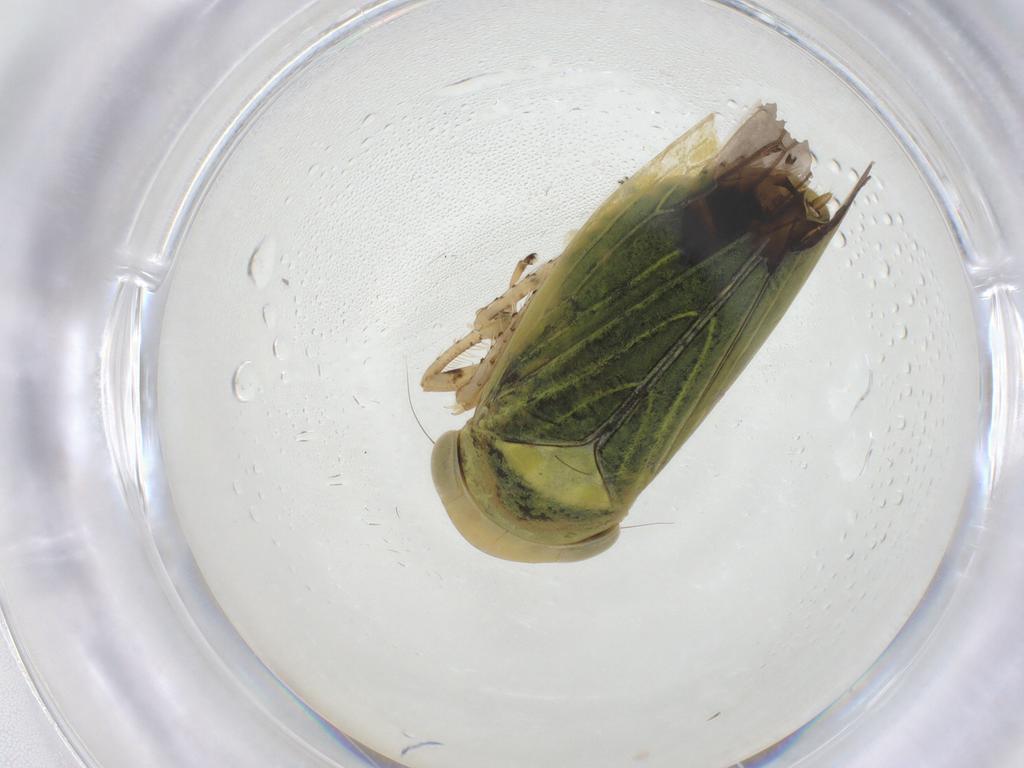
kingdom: Animalia
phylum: Arthropoda
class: Insecta
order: Hemiptera
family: Cicadellidae
